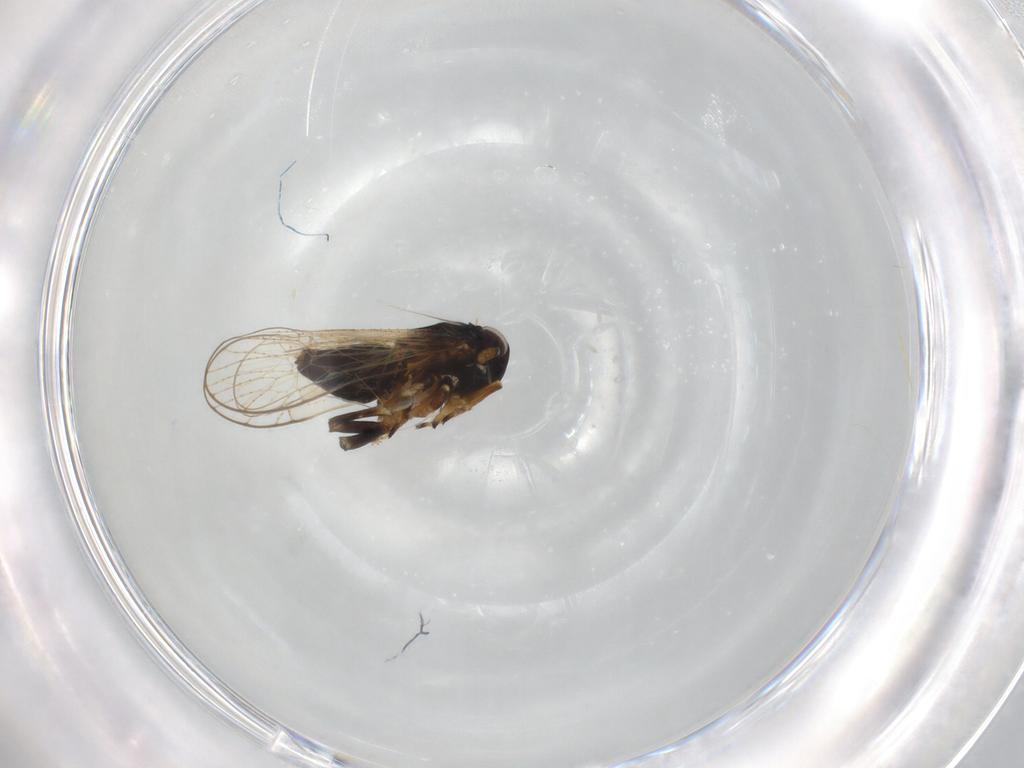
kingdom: Animalia
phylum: Arthropoda
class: Insecta
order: Hemiptera
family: Delphacidae
